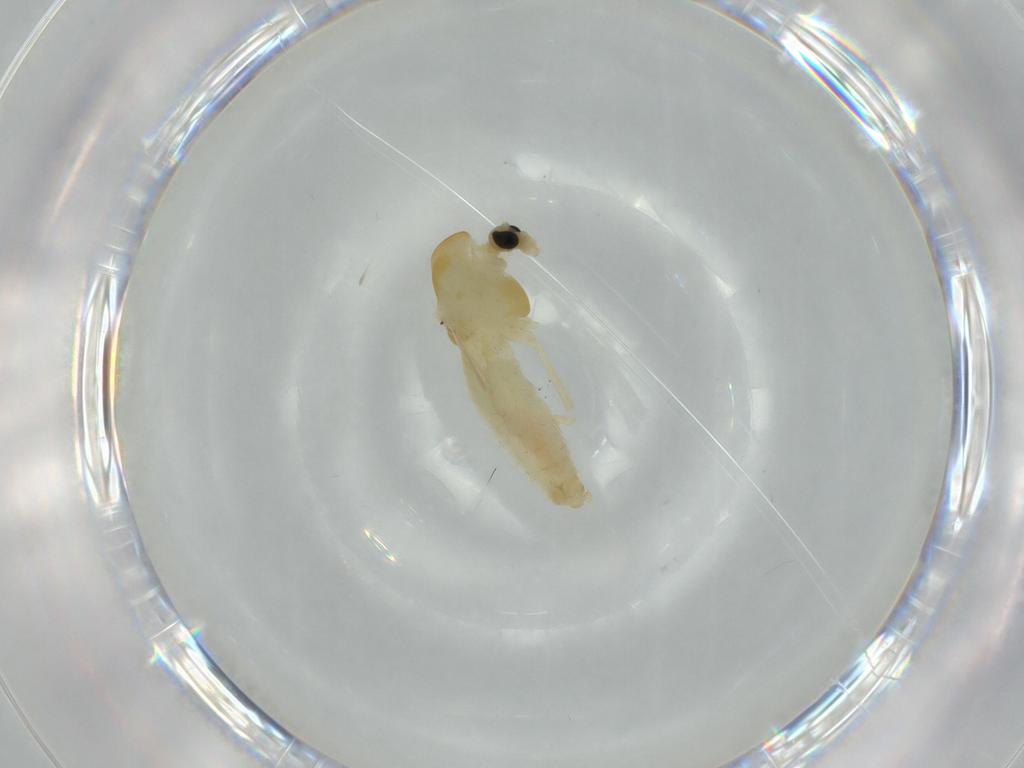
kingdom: Animalia
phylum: Arthropoda
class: Insecta
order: Diptera
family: Chironomidae
